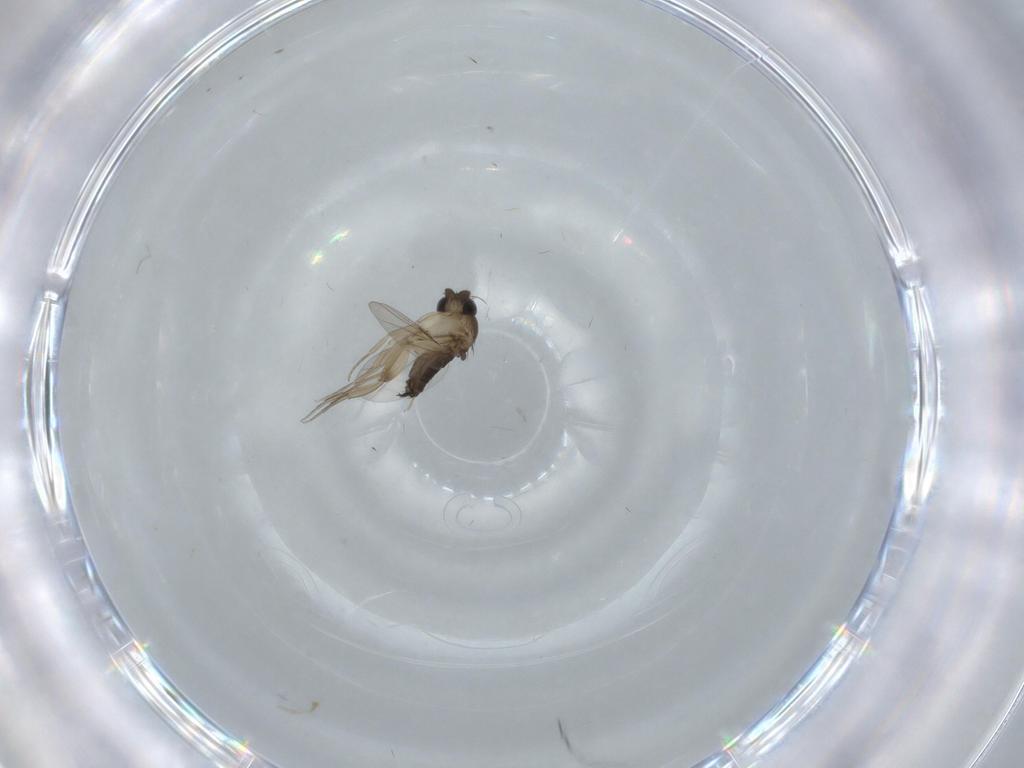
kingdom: Animalia
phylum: Arthropoda
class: Insecta
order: Diptera
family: Phoridae
